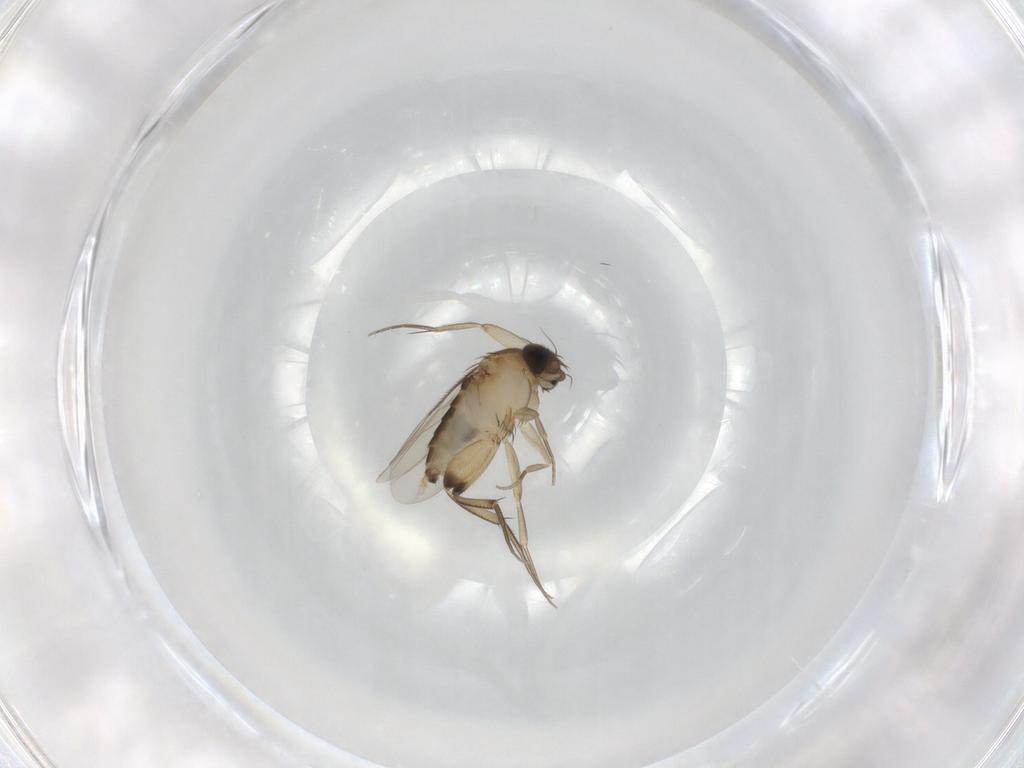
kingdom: Animalia
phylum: Arthropoda
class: Insecta
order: Diptera
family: Phoridae
